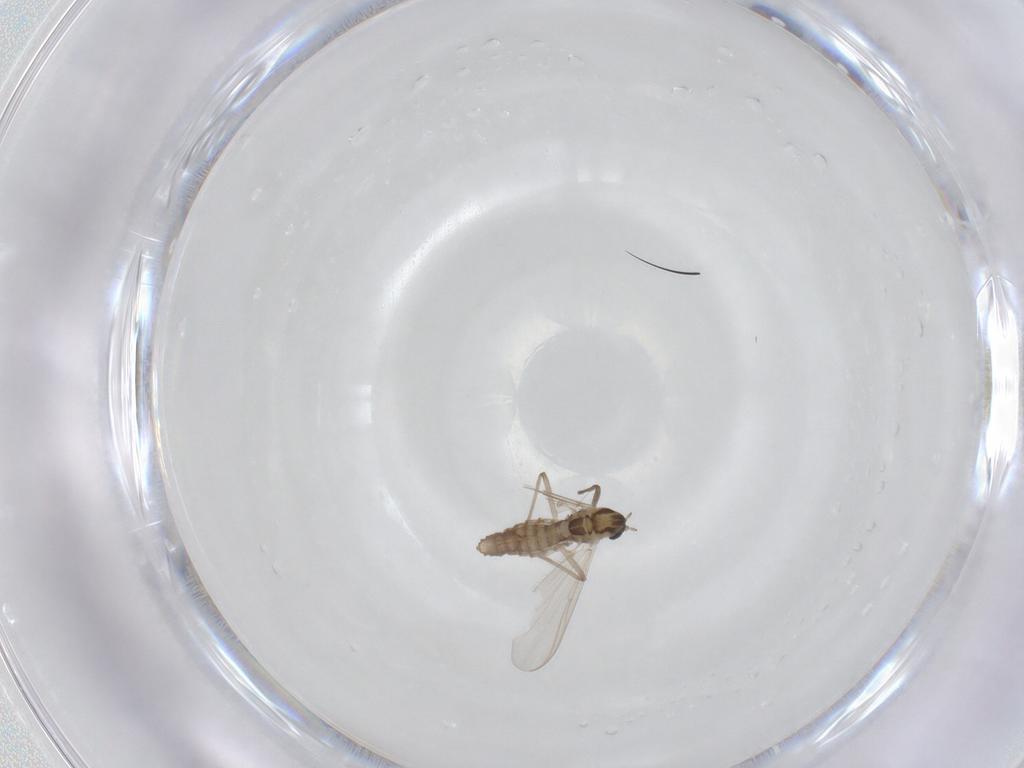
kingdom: Animalia
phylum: Arthropoda
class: Insecta
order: Diptera
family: Chironomidae
